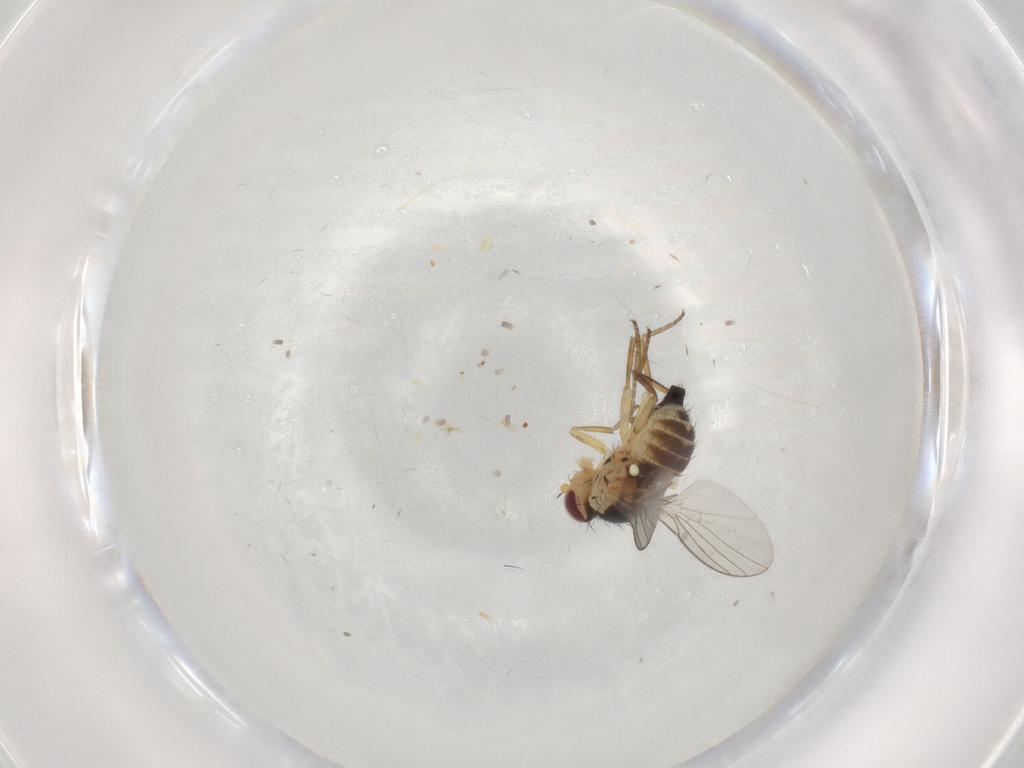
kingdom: Animalia
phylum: Arthropoda
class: Insecta
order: Diptera
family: Agromyzidae
